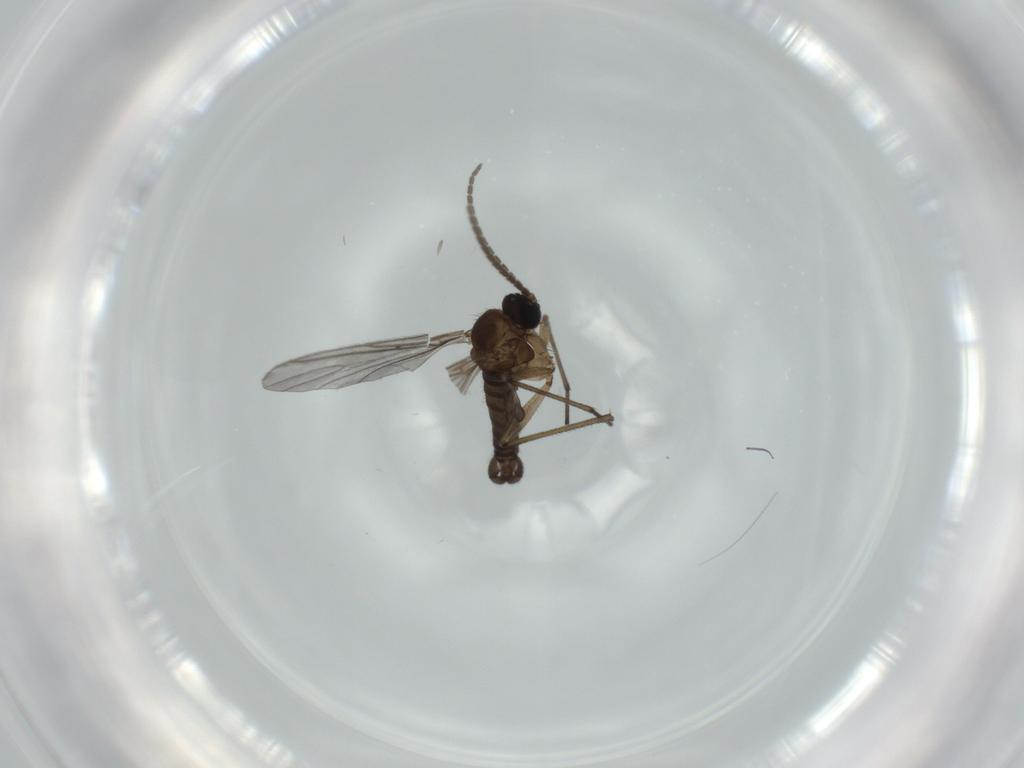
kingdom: Animalia
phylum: Arthropoda
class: Insecta
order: Diptera
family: Sciaridae
